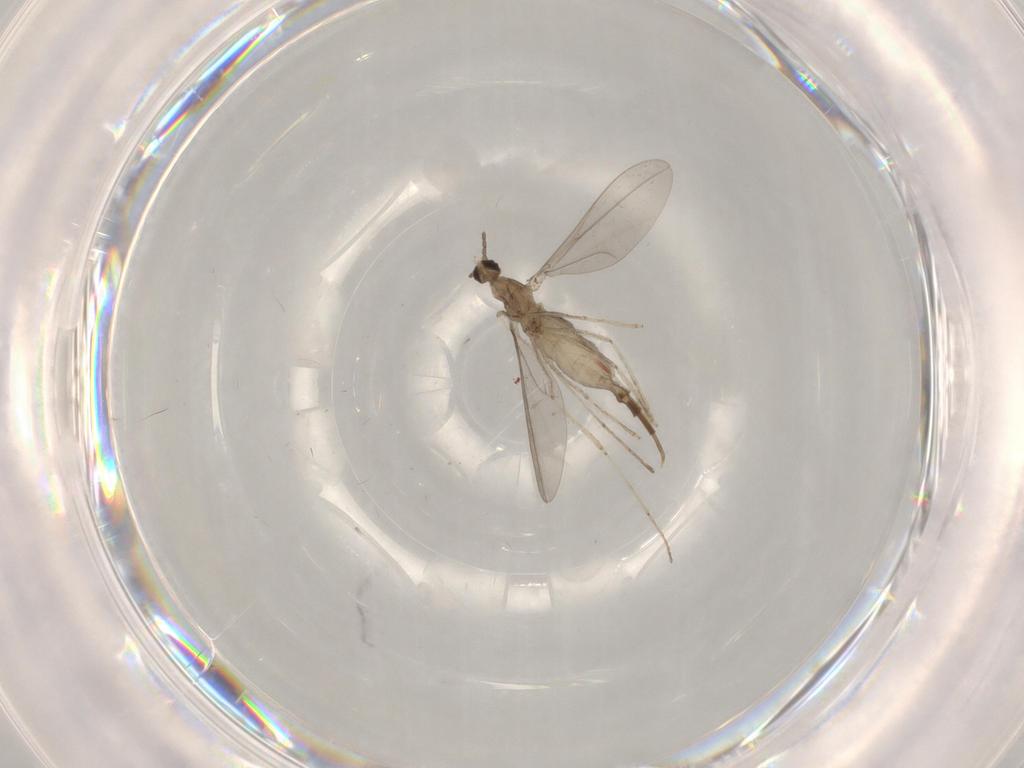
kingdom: Animalia
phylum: Arthropoda
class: Insecta
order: Diptera
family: Cecidomyiidae
